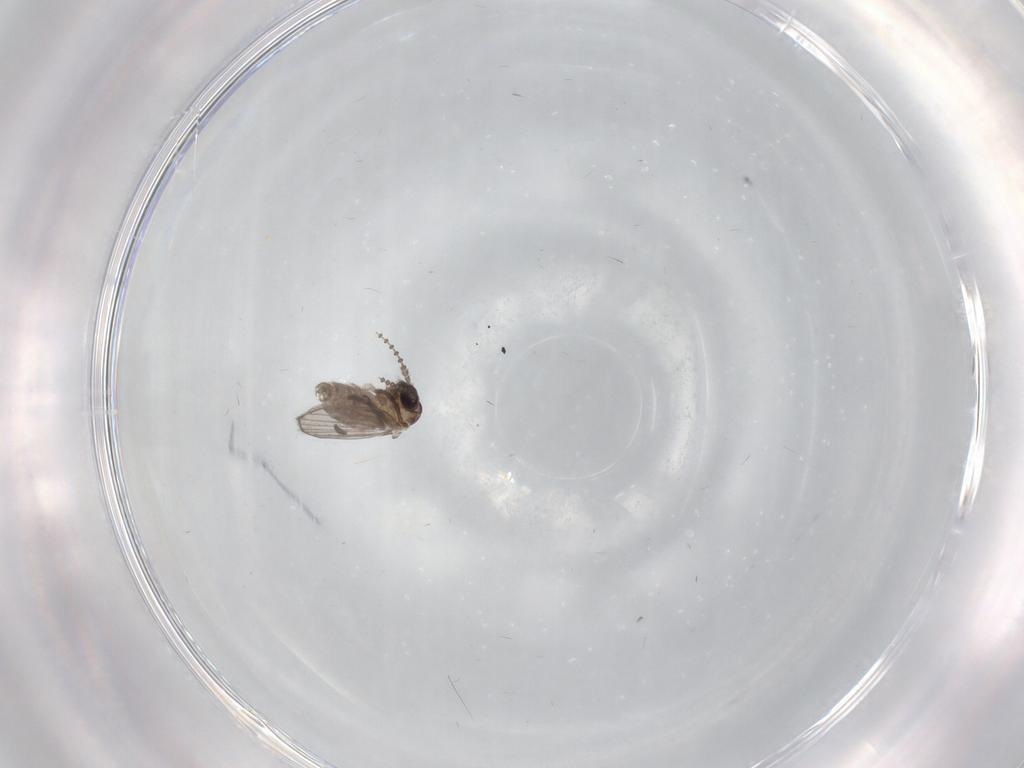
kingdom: Animalia
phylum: Arthropoda
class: Insecta
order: Diptera
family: Psychodidae
